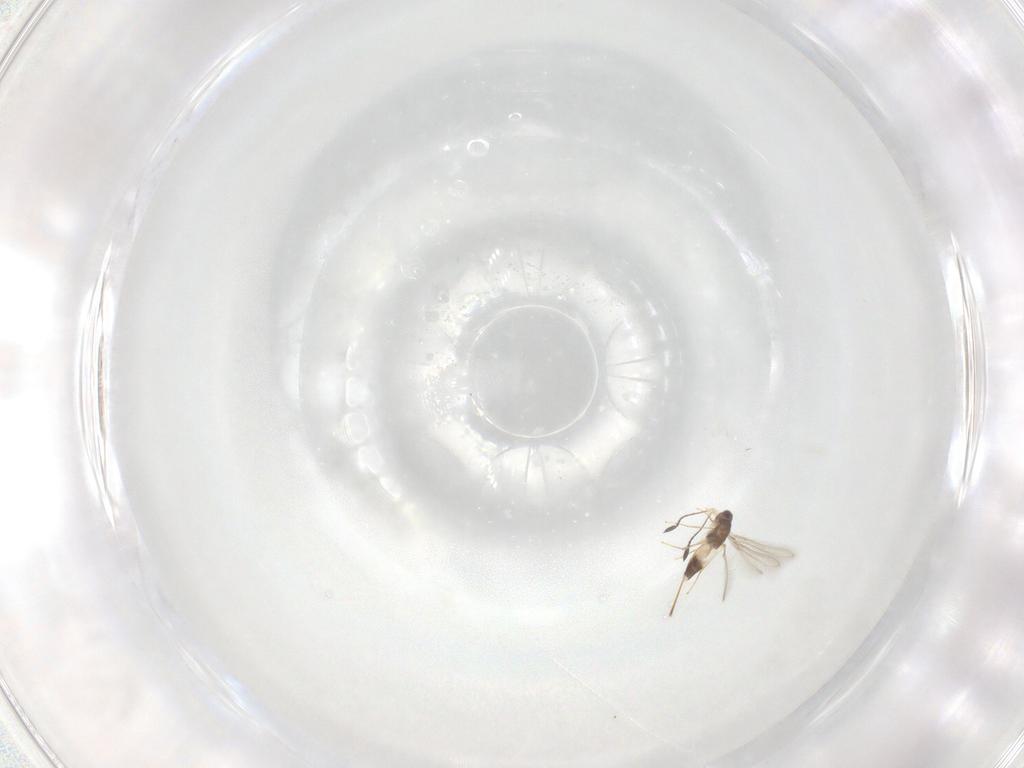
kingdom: Animalia
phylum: Arthropoda
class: Insecta
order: Hymenoptera
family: Mymaridae
